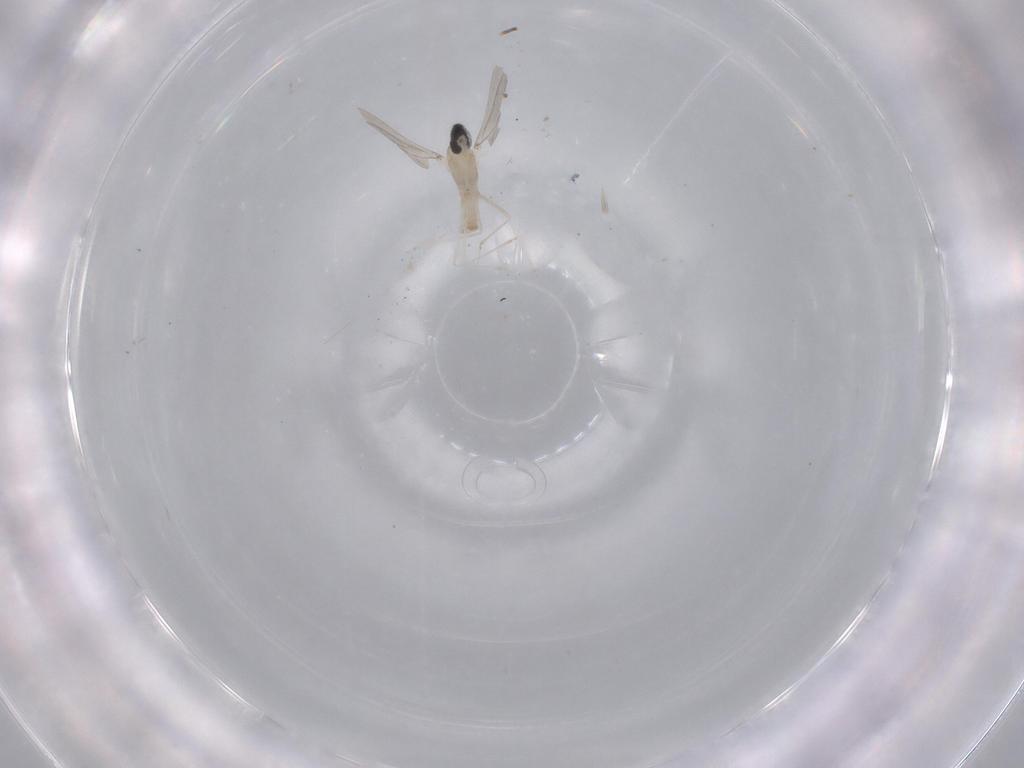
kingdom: Animalia
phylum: Arthropoda
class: Insecta
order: Diptera
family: Cecidomyiidae
